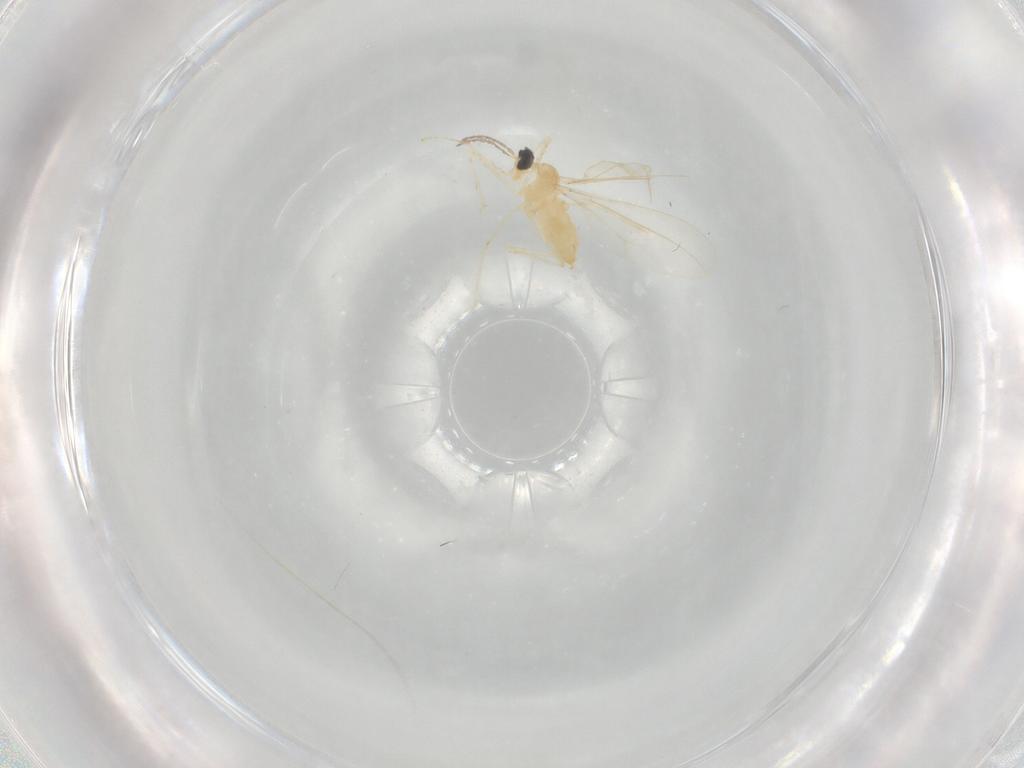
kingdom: Animalia
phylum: Arthropoda
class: Insecta
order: Diptera
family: Cecidomyiidae
